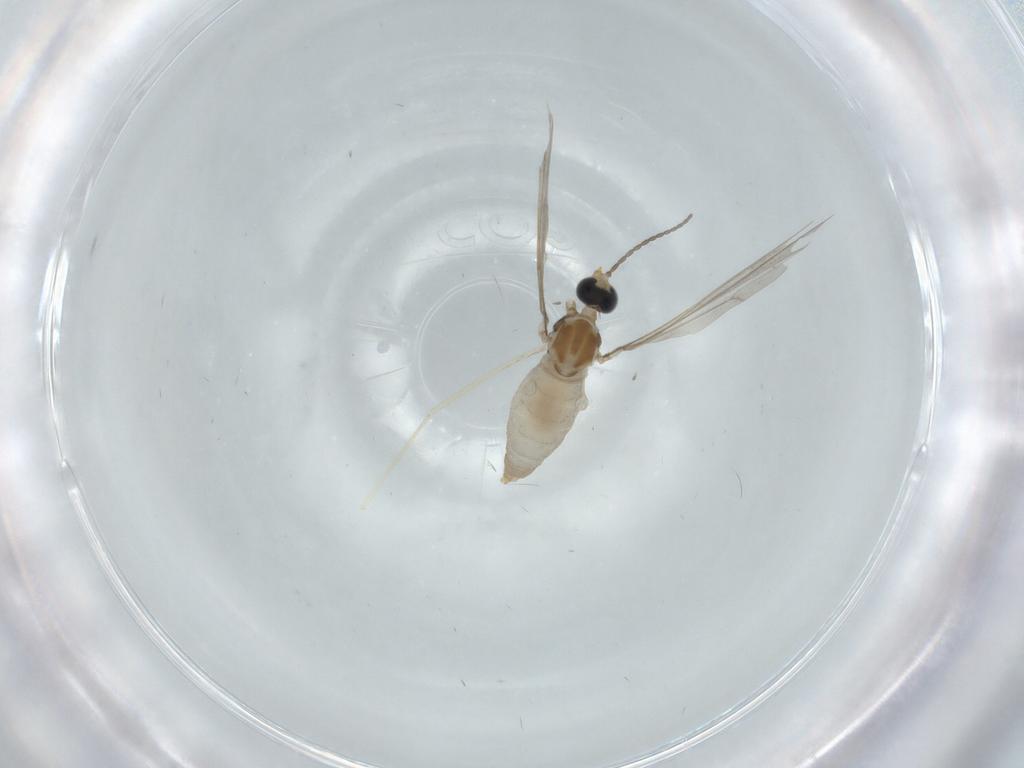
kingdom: Animalia
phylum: Arthropoda
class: Insecta
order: Diptera
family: Cecidomyiidae
